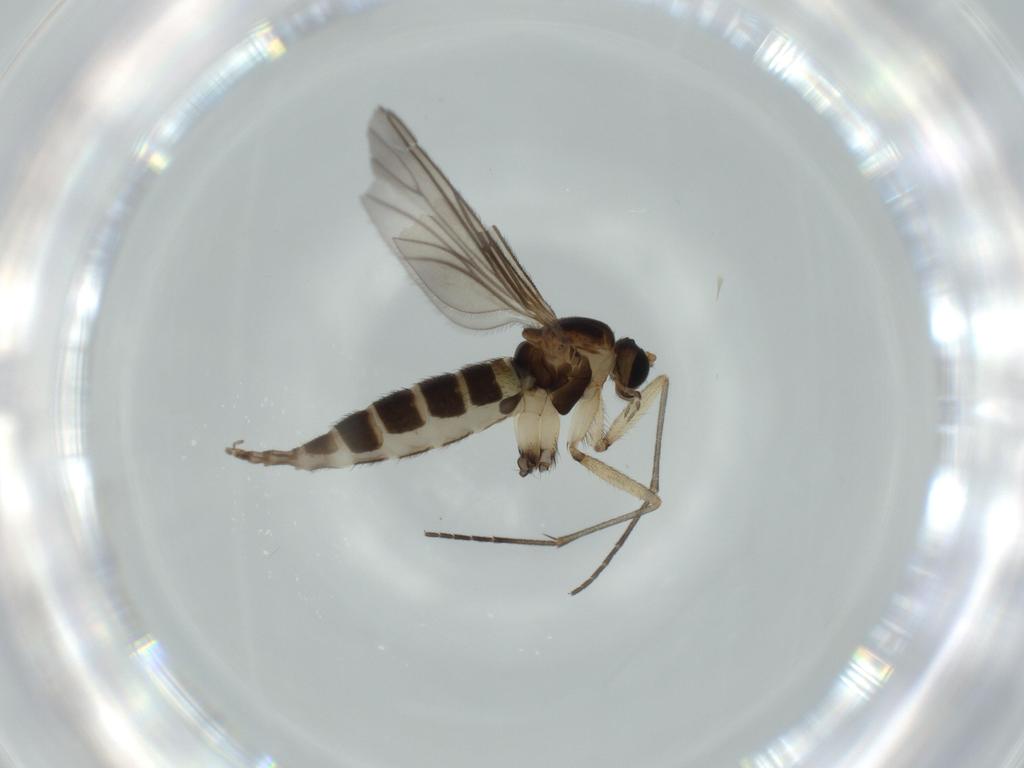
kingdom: Animalia
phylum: Arthropoda
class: Insecta
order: Diptera
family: Sciaridae
